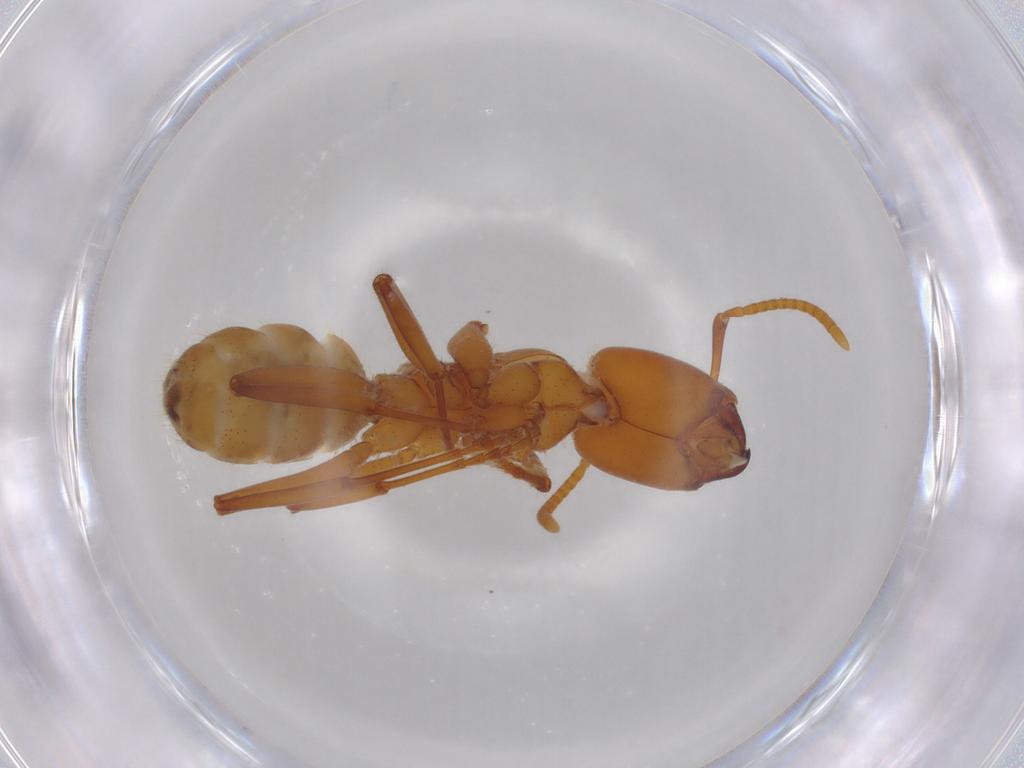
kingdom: Animalia
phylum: Arthropoda
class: Insecta
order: Hymenoptera
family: Formicidae
